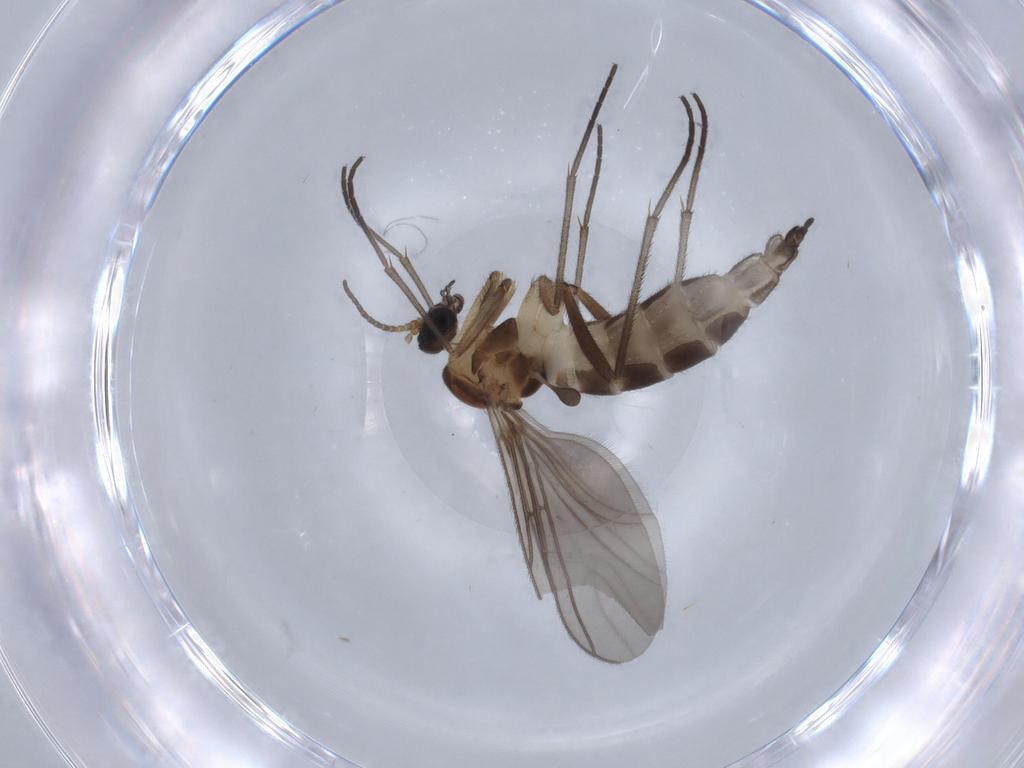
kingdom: Animalia
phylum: Arthropoda
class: Insecta
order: Diptera
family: Sciaridae
